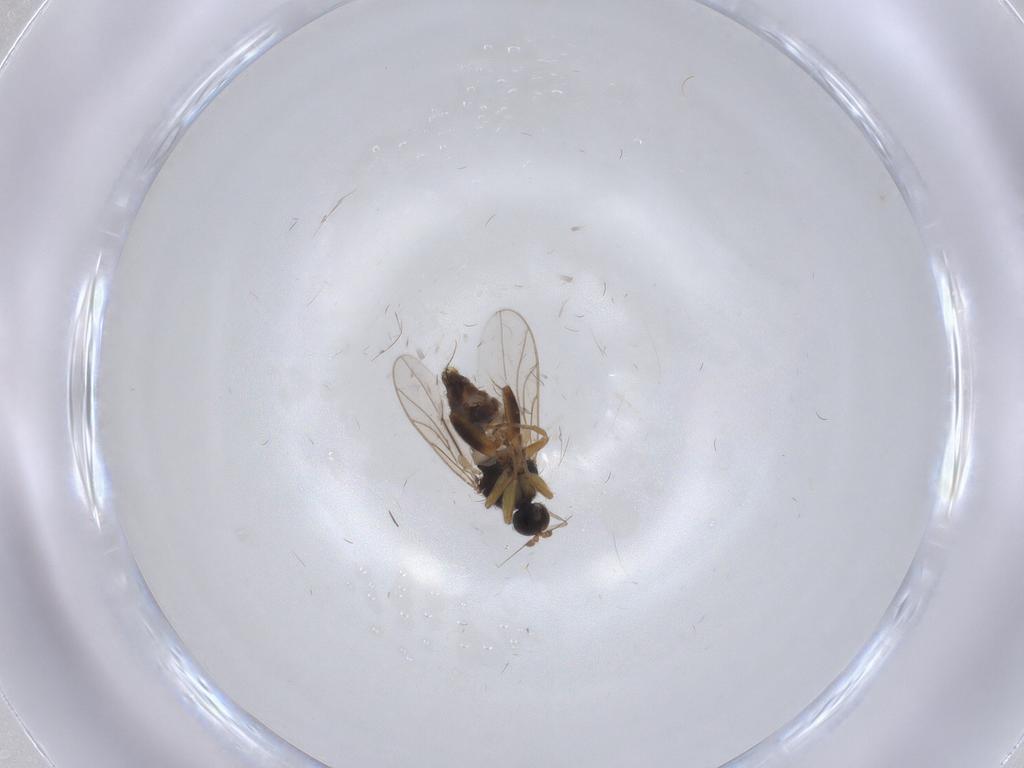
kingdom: Animalia
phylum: Arthropoda
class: Insecta
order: Diptera
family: Hybotidae
